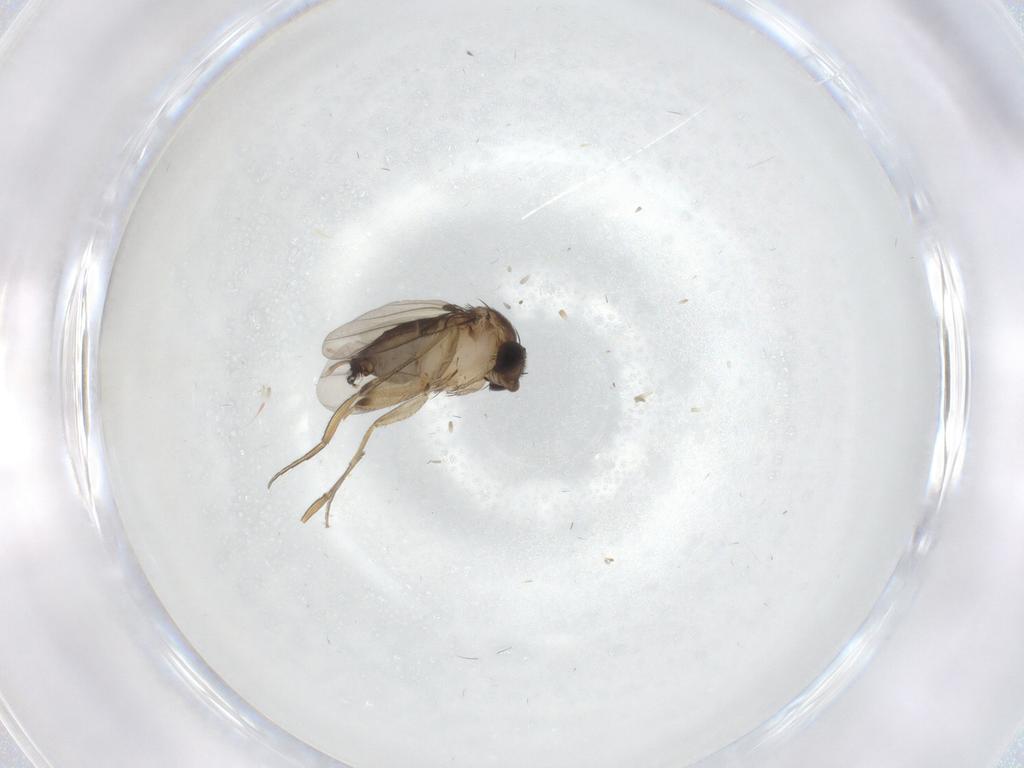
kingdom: Animalia
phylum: Arthropoda
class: Insecta
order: Diptera
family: Phoridae
